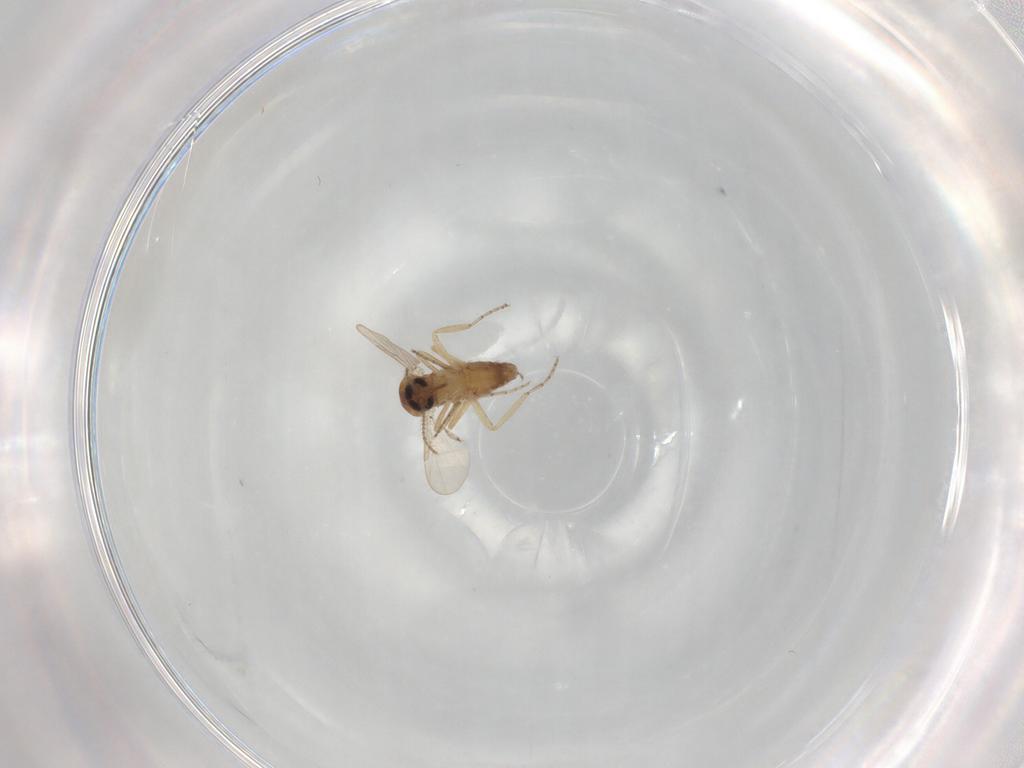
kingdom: Animalia
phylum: Arthropoda
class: Insecta
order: Diptera
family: Ceratopogonidae
